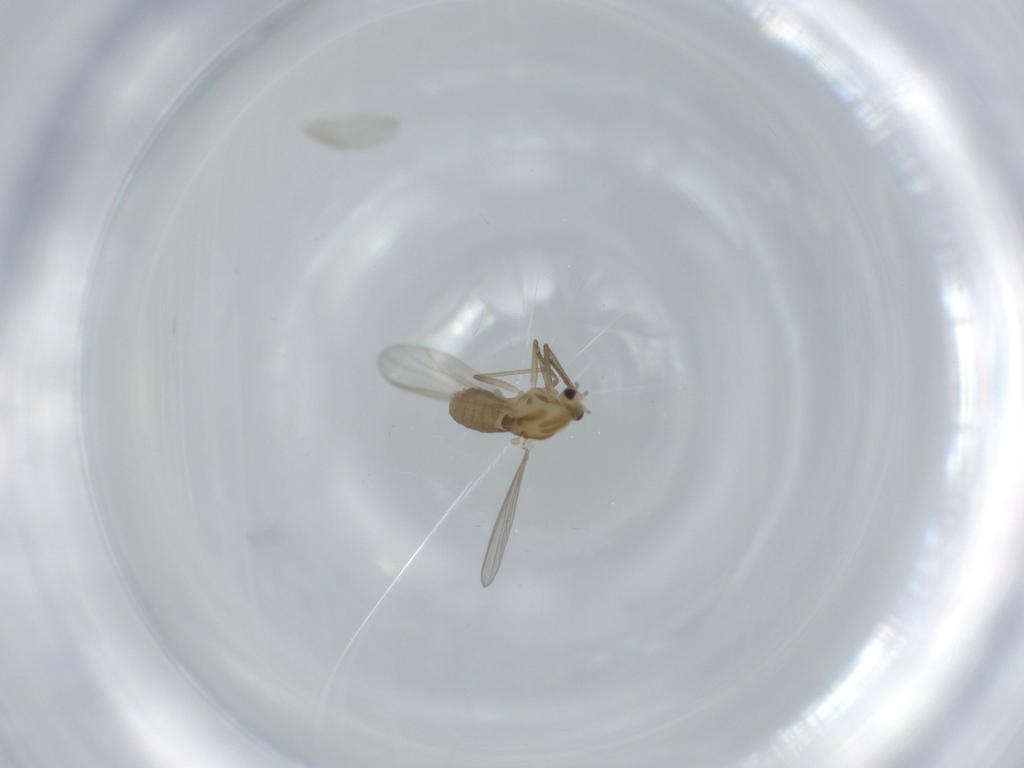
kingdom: Animalia
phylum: Arthropoda
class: Insecta
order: Diptera
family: Chironomidae
